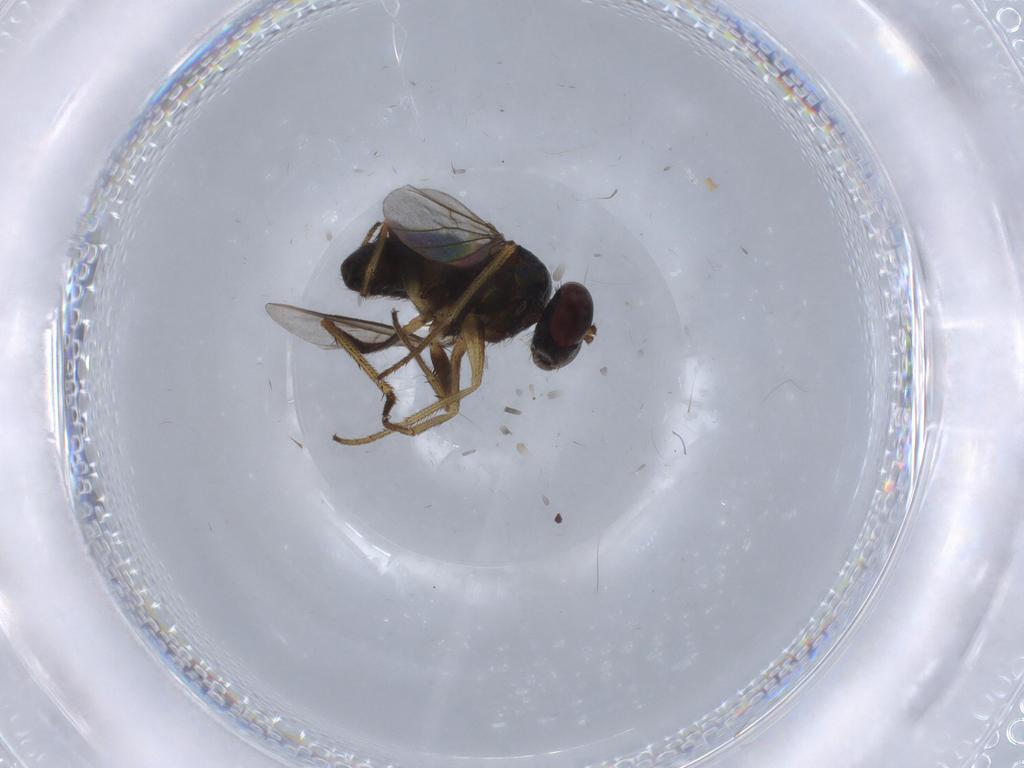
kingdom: Animalia
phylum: Arthropoda
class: Insecta
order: Diptera
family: Dolichopodidae
